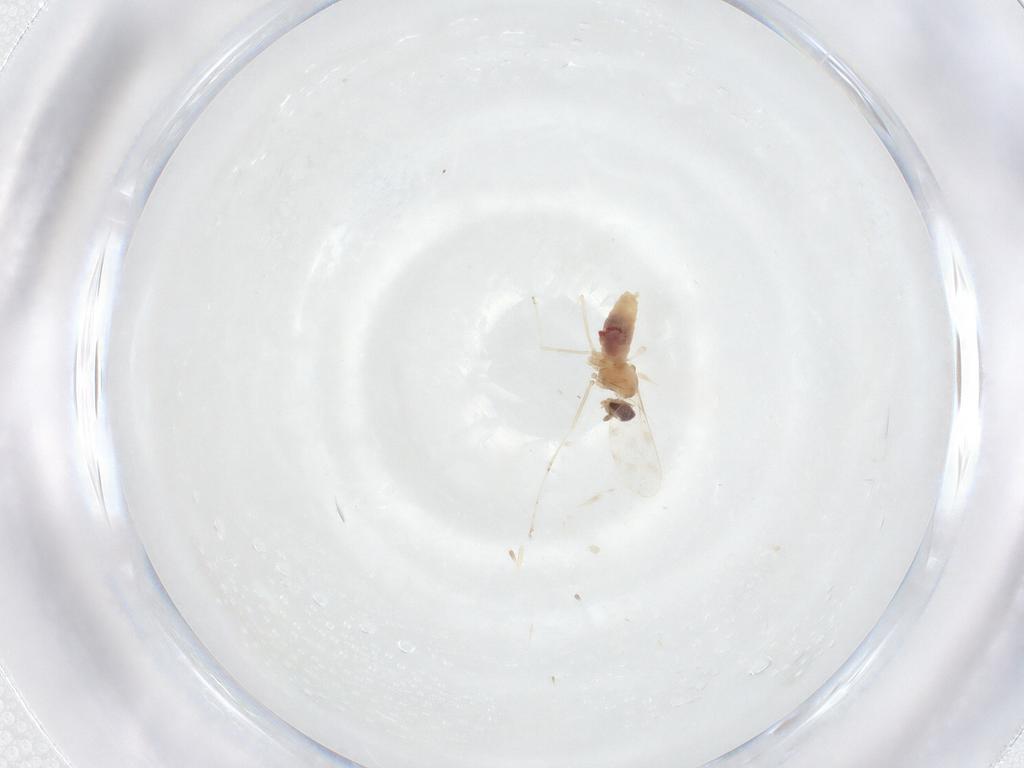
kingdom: Animalia
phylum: Arthropoda
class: Insecta
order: Diptera
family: Cecidomyiidae
